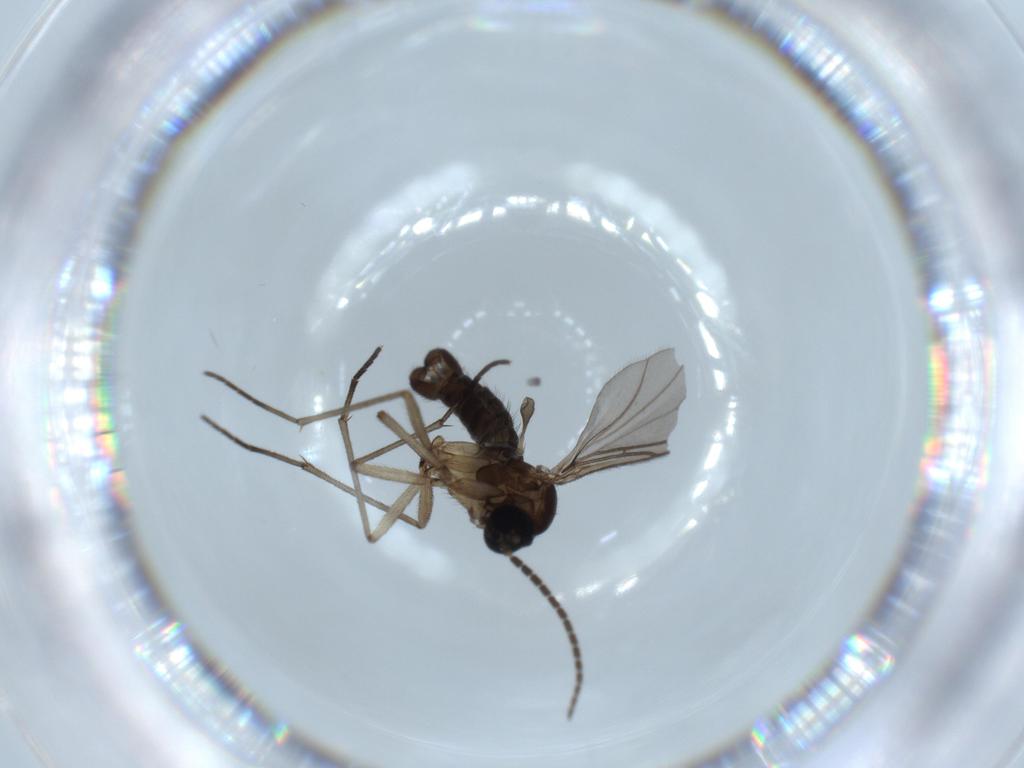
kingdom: Animalia
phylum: Arthropoda
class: Insecta
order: Diptera
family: Sciaridae
